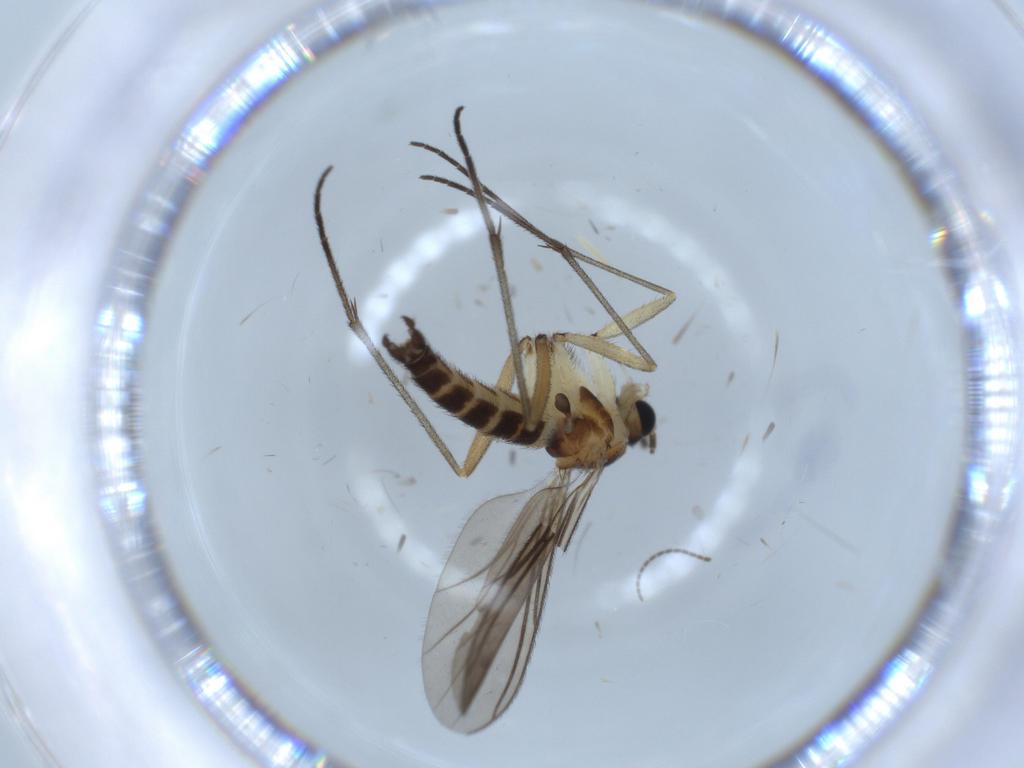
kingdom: Animalia
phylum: Arthropoda
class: Insecta
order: Diptera
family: Sciaridae
